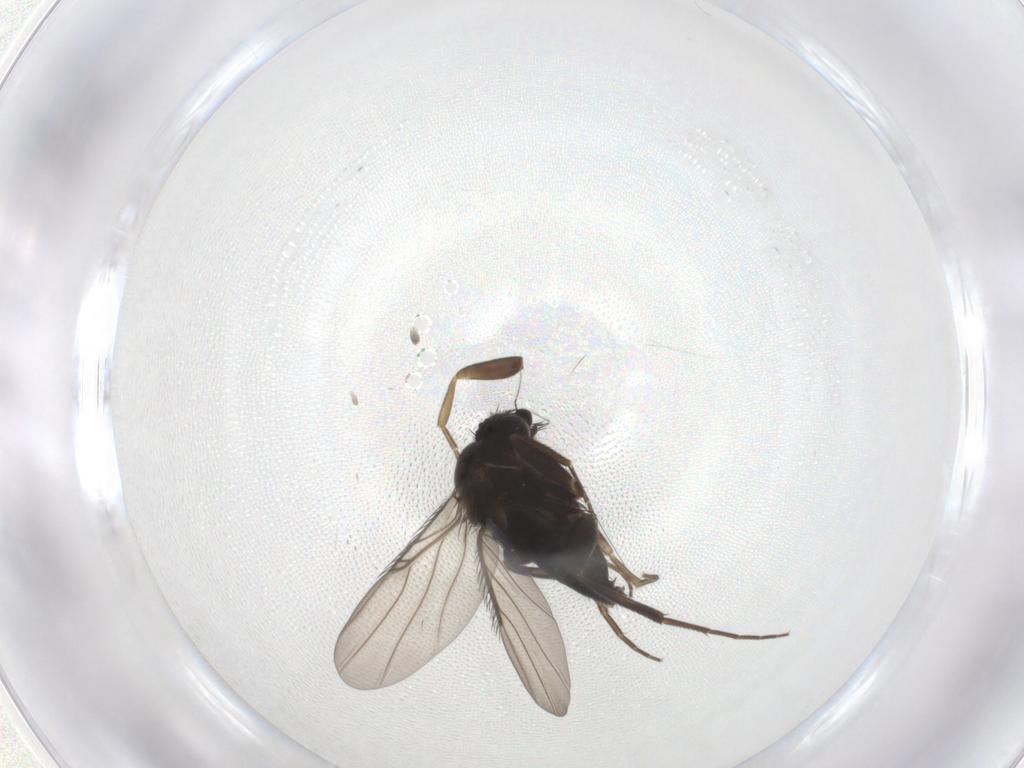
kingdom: Animalia
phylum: Arthropoda
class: Insecta
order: Diptera
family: Phoridae
